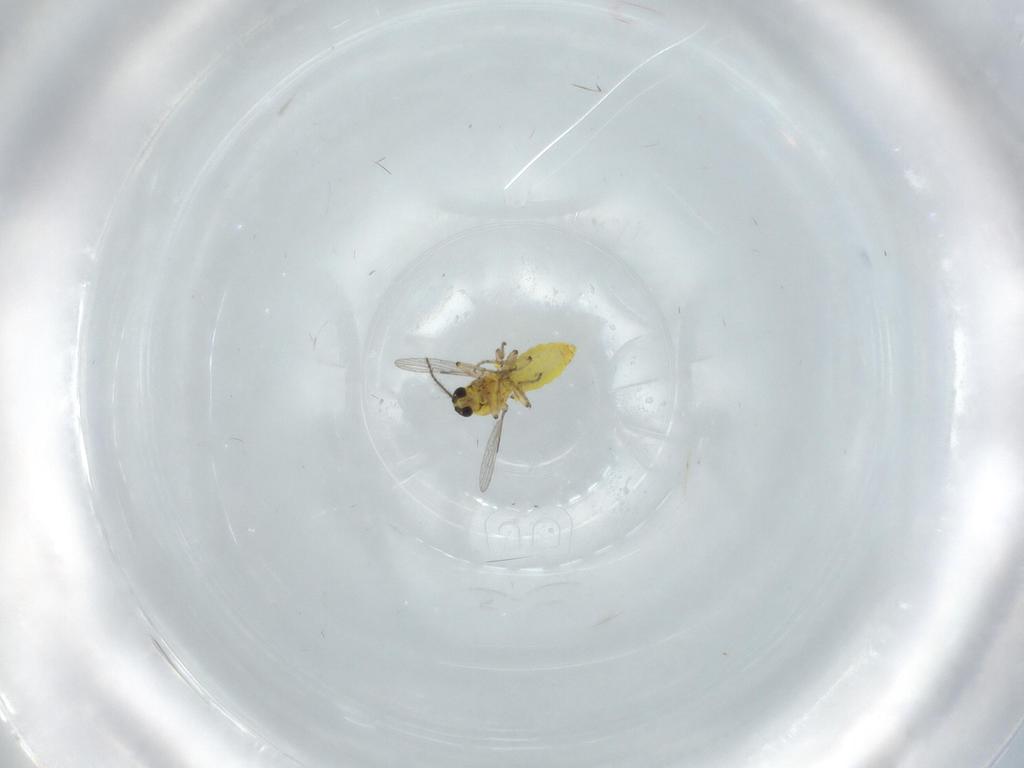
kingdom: Animalia
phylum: Arthropoda
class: Insecta
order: Diptera
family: Ceratopogonidae
